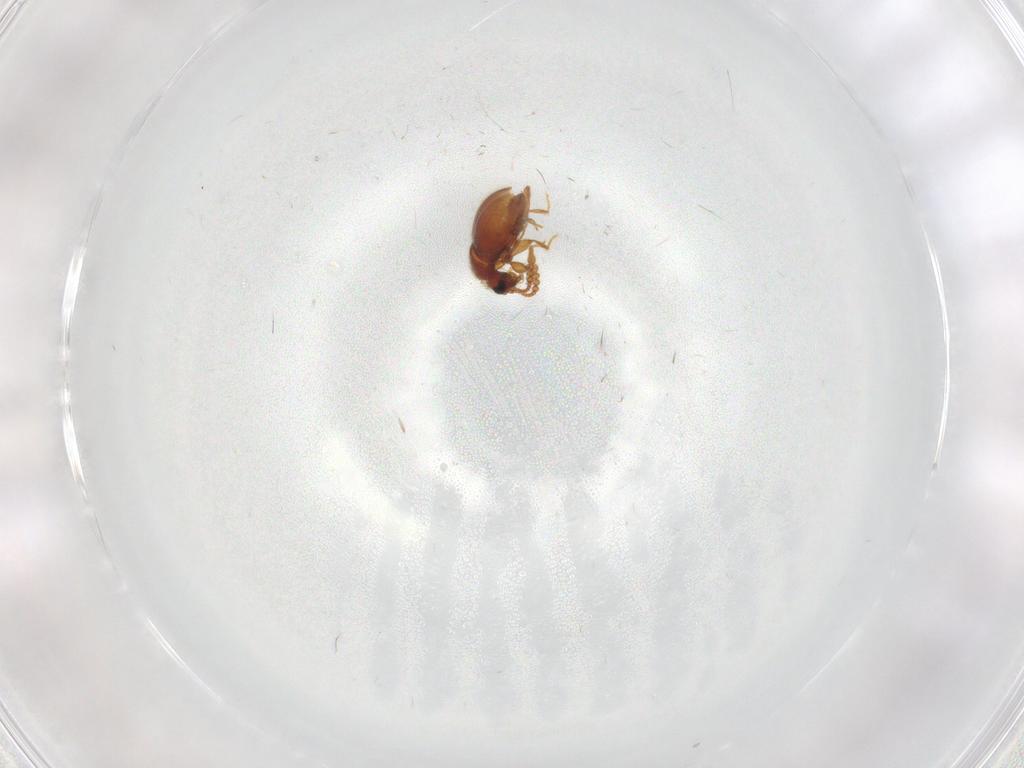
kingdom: Animalia
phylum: Arthropoda
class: Insecta
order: Coleoptera
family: Staphylinidae
